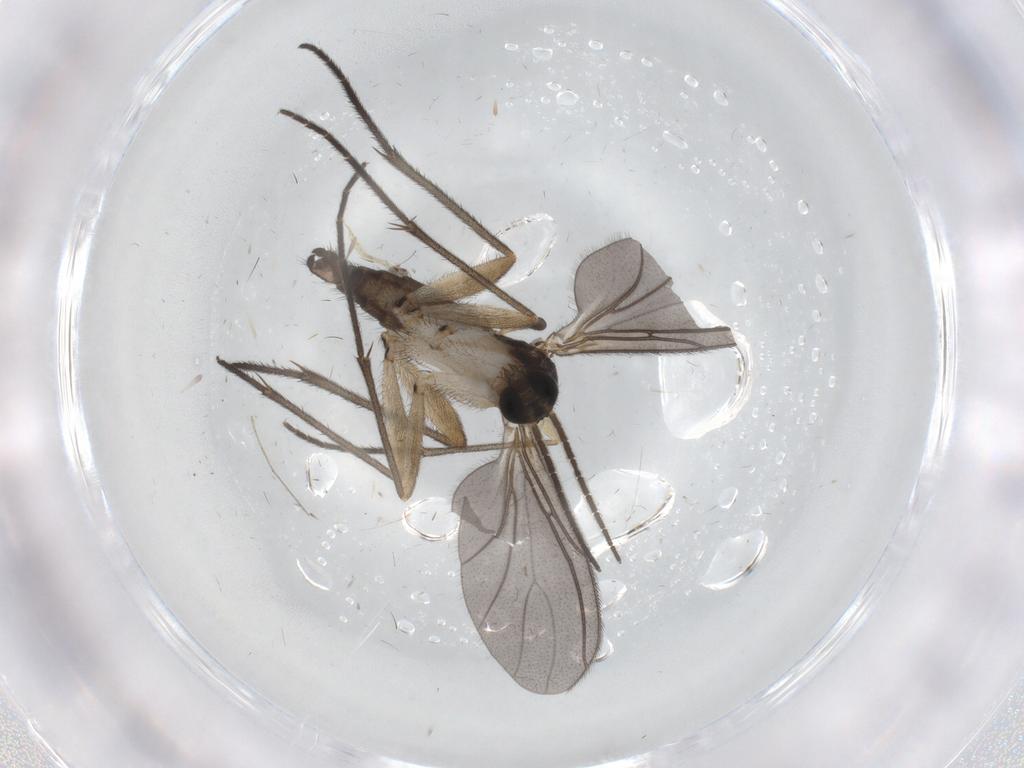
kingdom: Animalia
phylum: Arthropoda
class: Insecta
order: Diptera
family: Sciaridae
